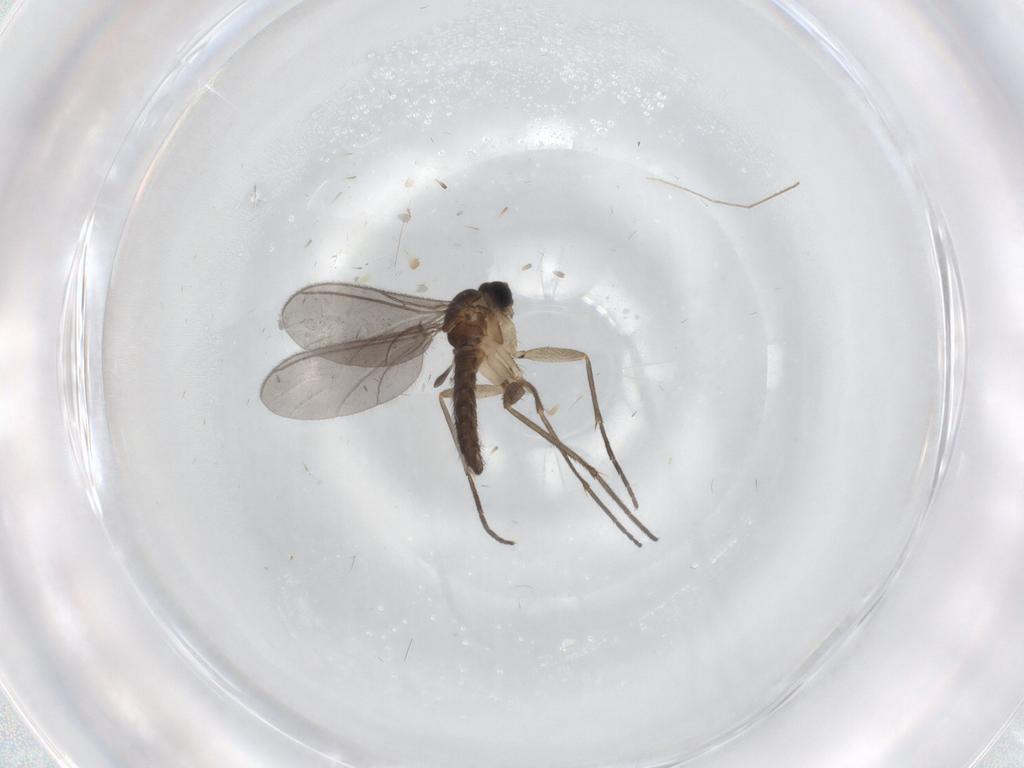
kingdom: Animalia
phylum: Arthropoda
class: Insecta
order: Diptera
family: Sciaridae
